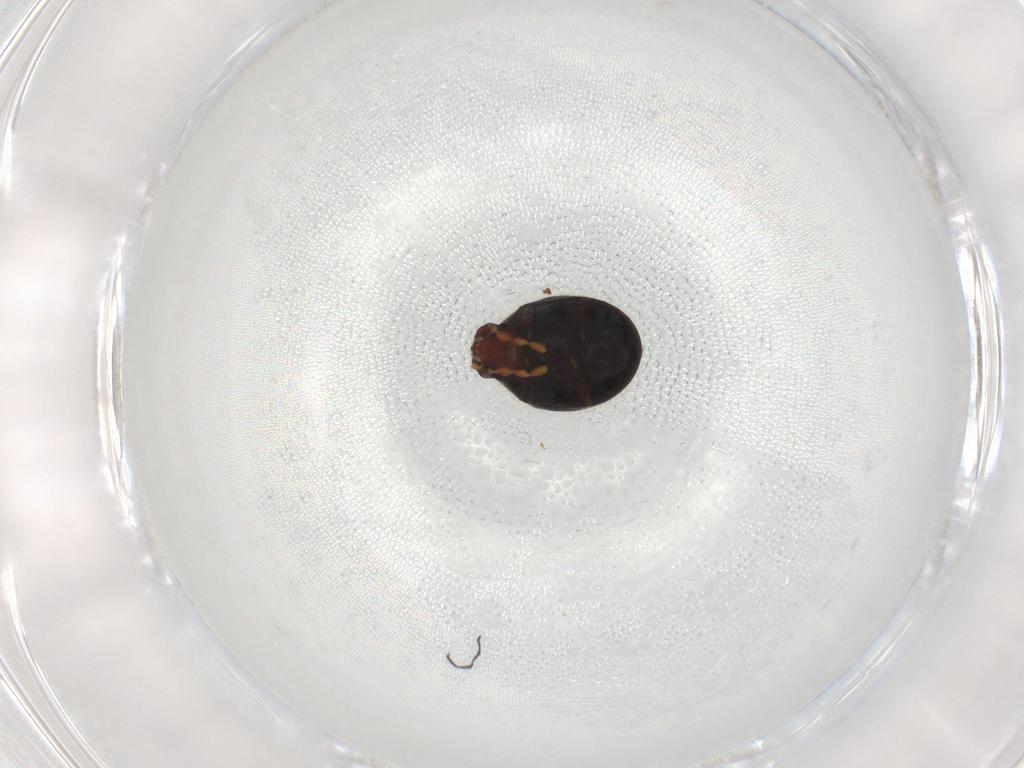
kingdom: Animalia
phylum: Arthropoda
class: Insecta
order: Coleoptera
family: Ptinidae
